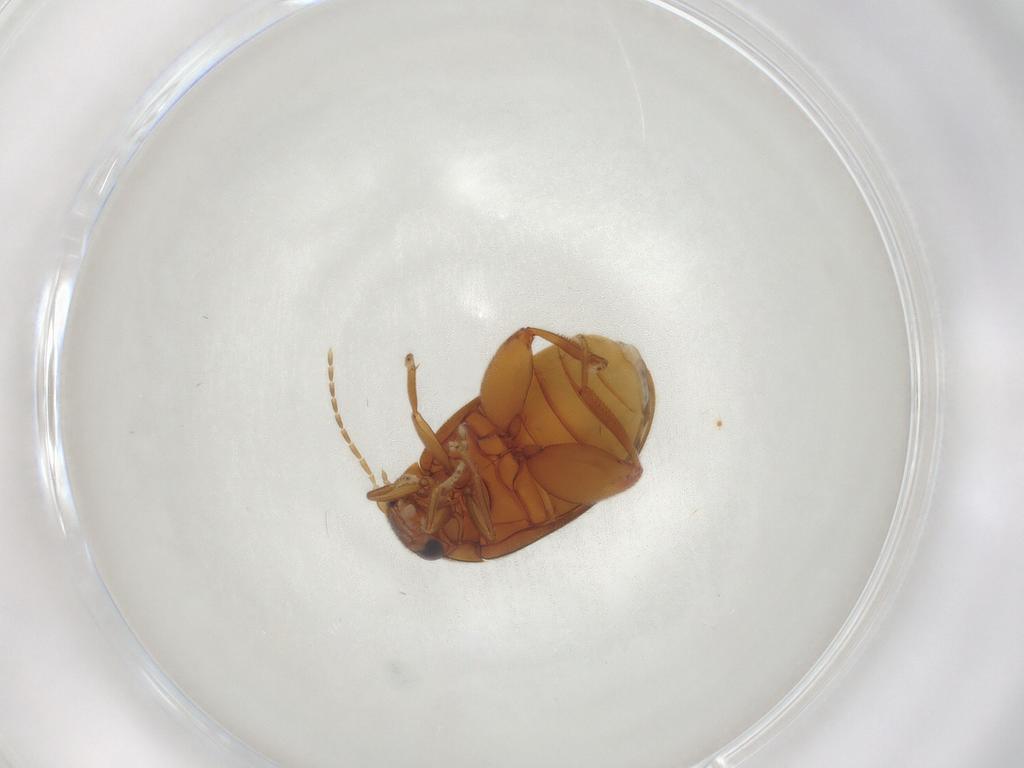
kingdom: Animalia
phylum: Arthropoda
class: Insecta
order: Coleoptera
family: Scirtidae
